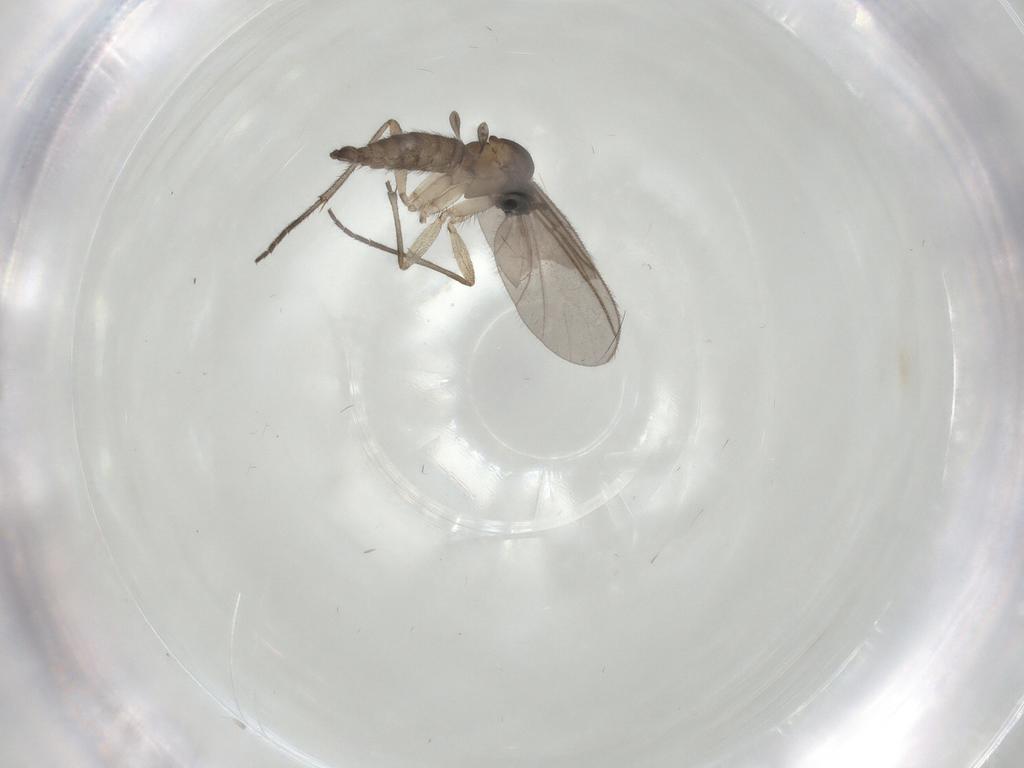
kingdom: Animalia
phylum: Arthropoda
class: Insecta
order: Diptera
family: Sciaridae
